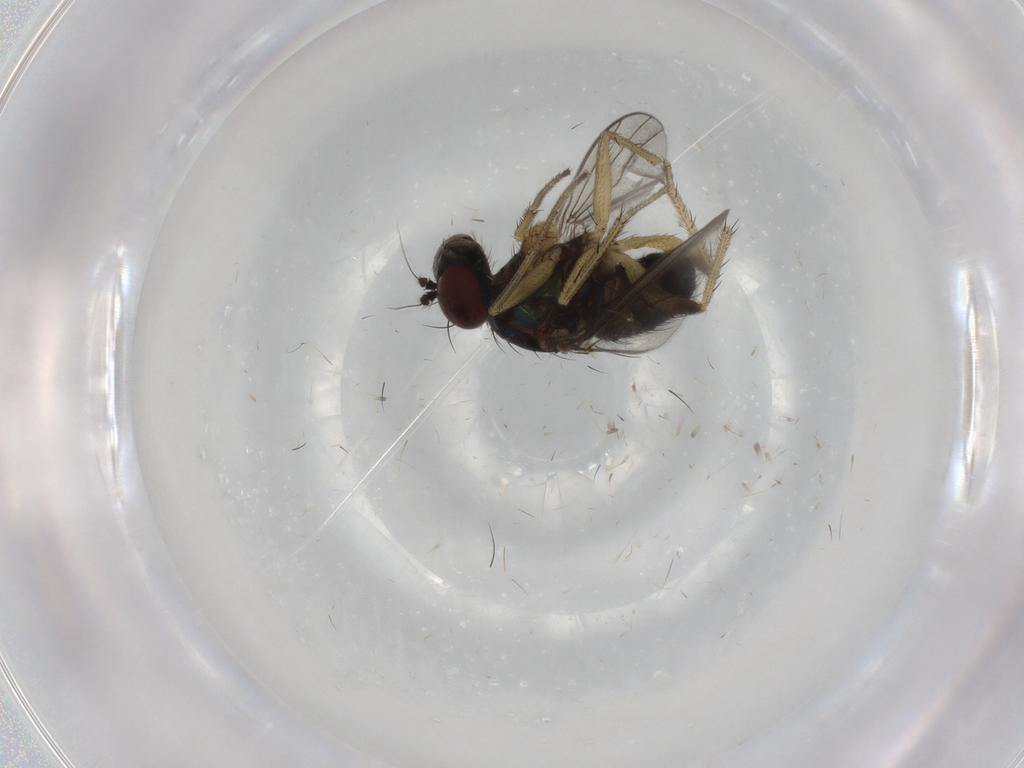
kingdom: Animalia
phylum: Arthropoda
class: Insecta
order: Diptera
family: Dolichopodidae
